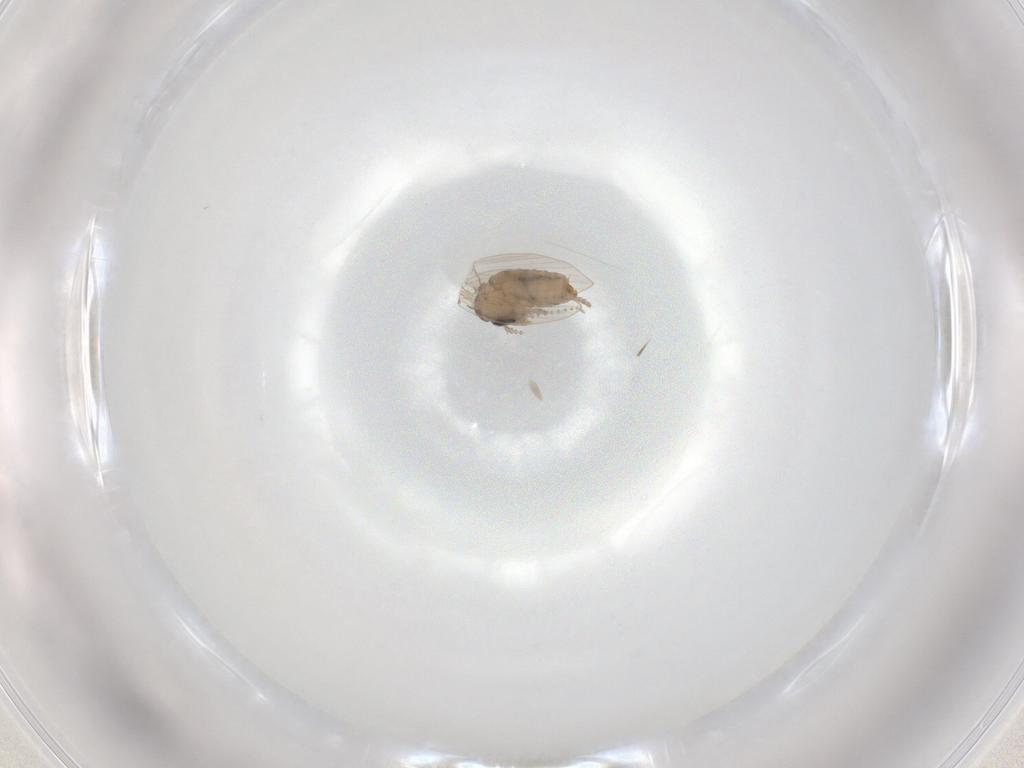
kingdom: Animalia
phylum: Arthropoda
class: Insecta
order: Diptera
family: Psychodidae
